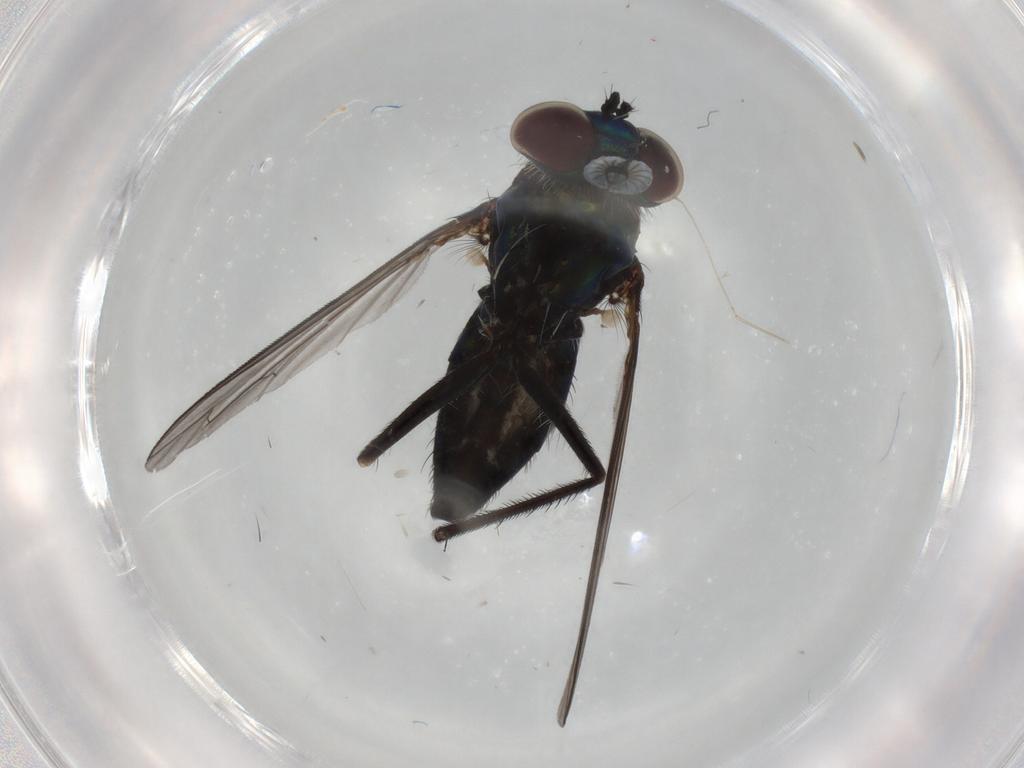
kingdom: Animalia
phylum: Arthropoda
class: Insecta
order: Diptera
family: Dolichopodidae
